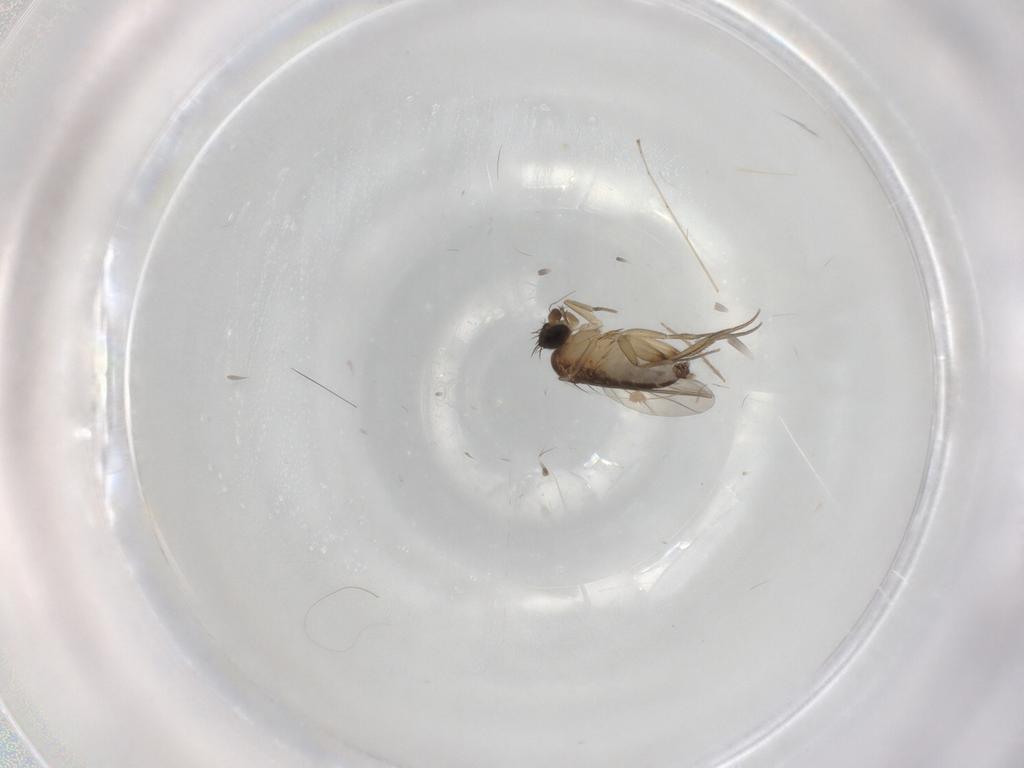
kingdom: Animalia
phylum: Arthropoda
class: Insecta
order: Diptera
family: Phoridae
